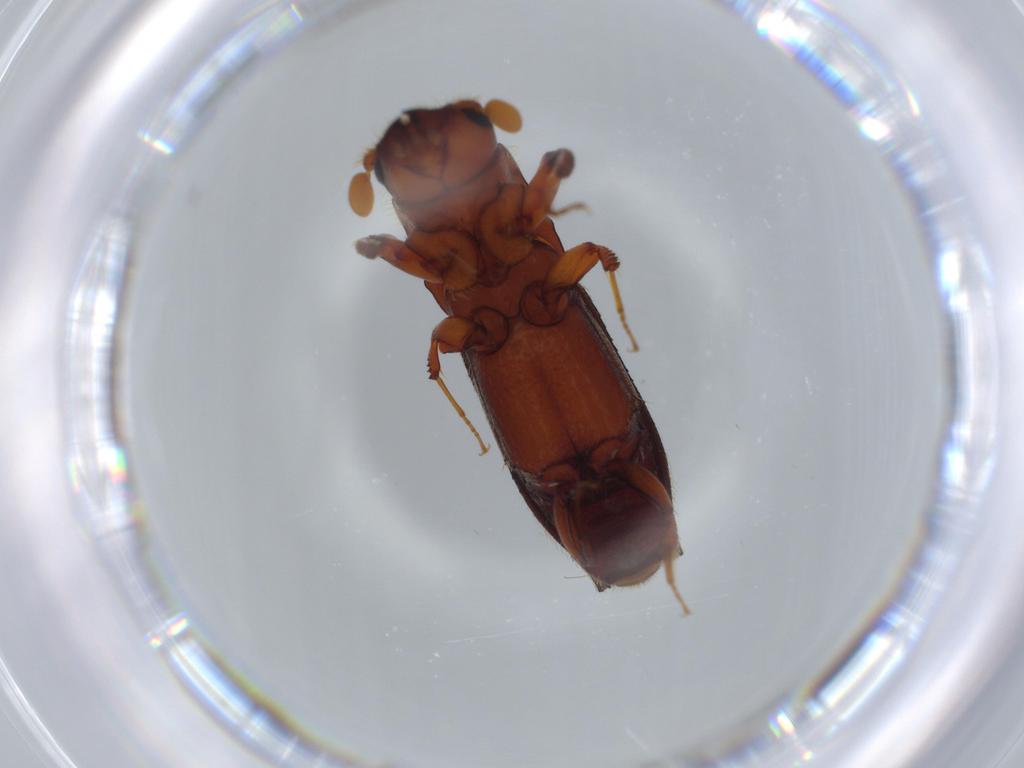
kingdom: Animalia
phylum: Arthropoda
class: Insecta
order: Coleoptera
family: Curculionidae
